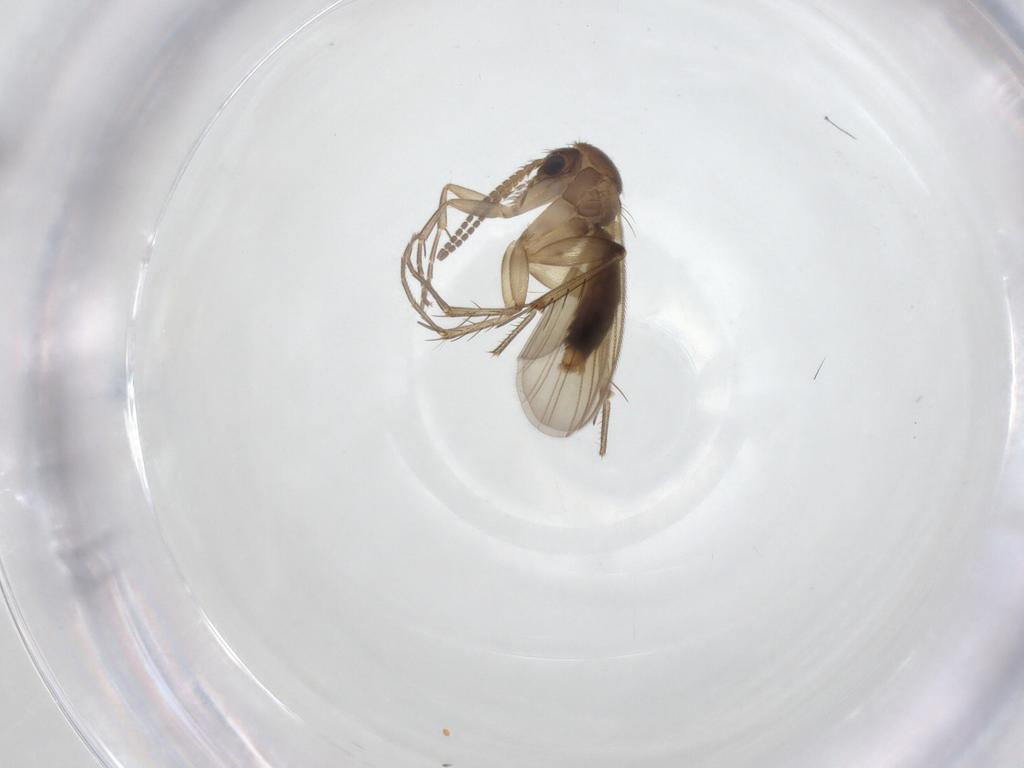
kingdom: Animalia
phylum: Arthropoda
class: Insecta
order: Diptera
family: Mycetophilidae
